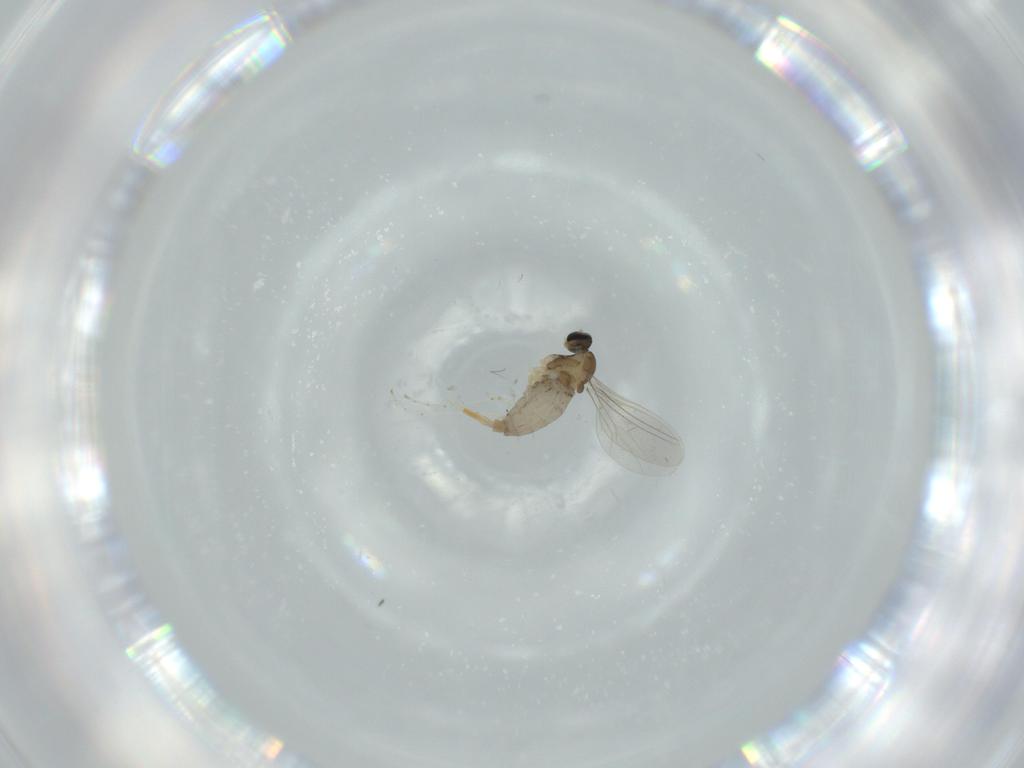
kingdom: Animalia
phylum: Arthropoda
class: Insecta
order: Diptera
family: Cecidomyiidae
